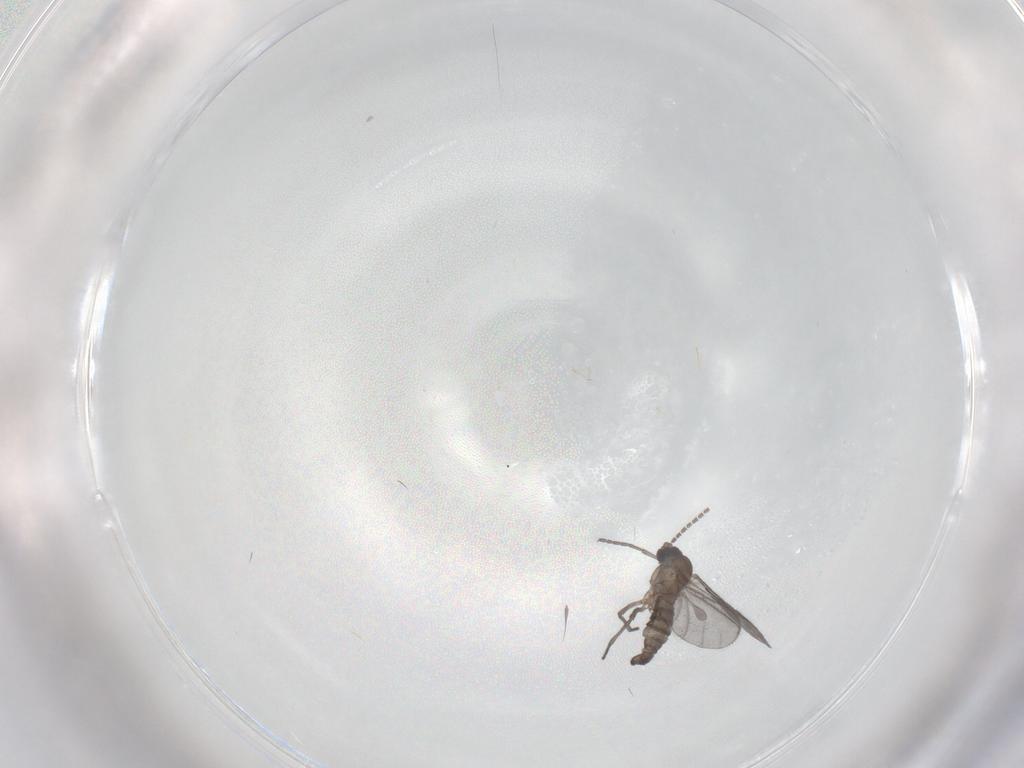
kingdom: Animalia
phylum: Arthropoda
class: Insecta
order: Diptera
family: Sciaridae
